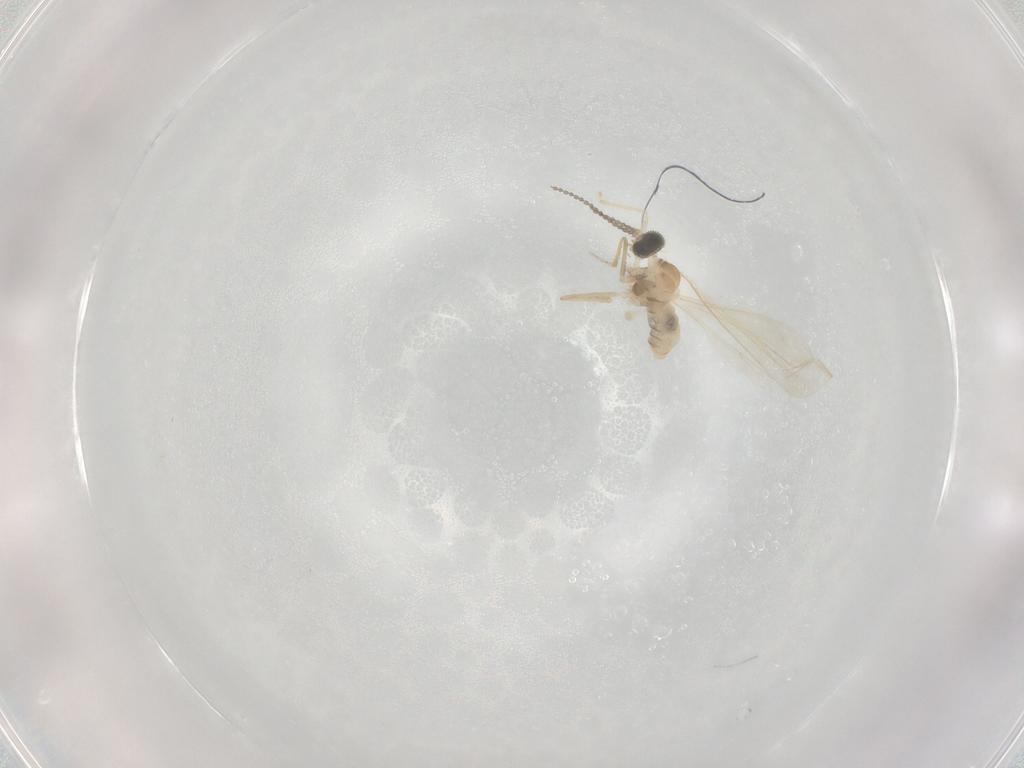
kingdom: Animalia
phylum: Arthropoda
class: Insecta
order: Diptera
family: Cecidomyiidae
